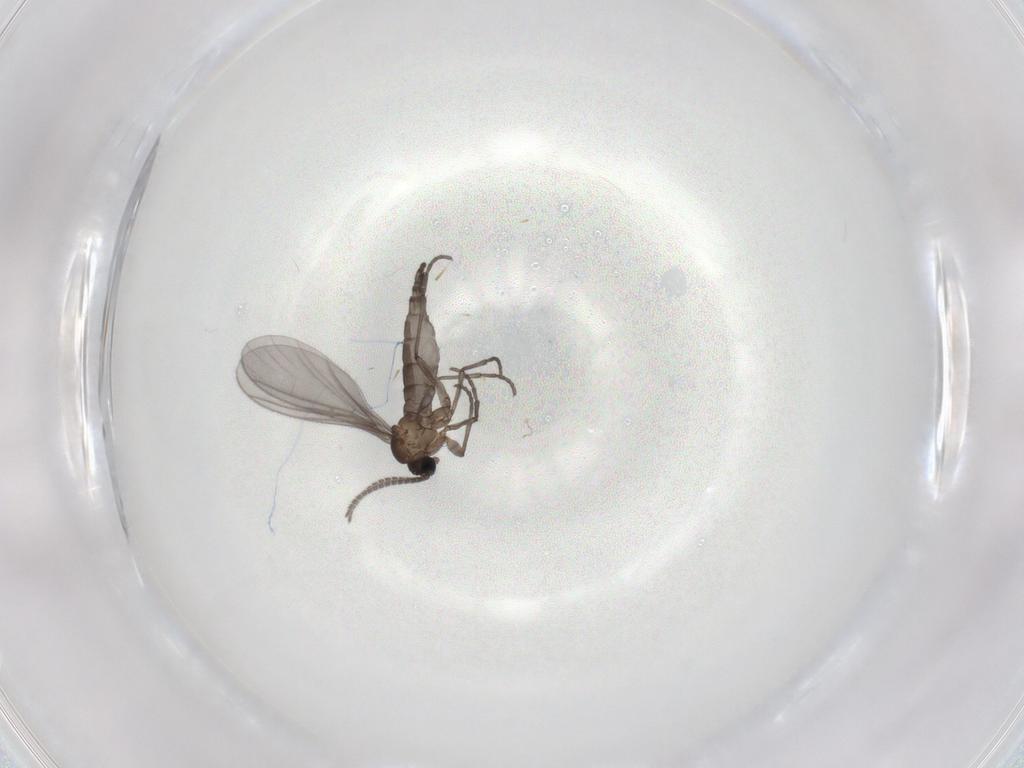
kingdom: Animalia
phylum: Arthropoda
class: Insecta
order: Diptera
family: Sciaridae
